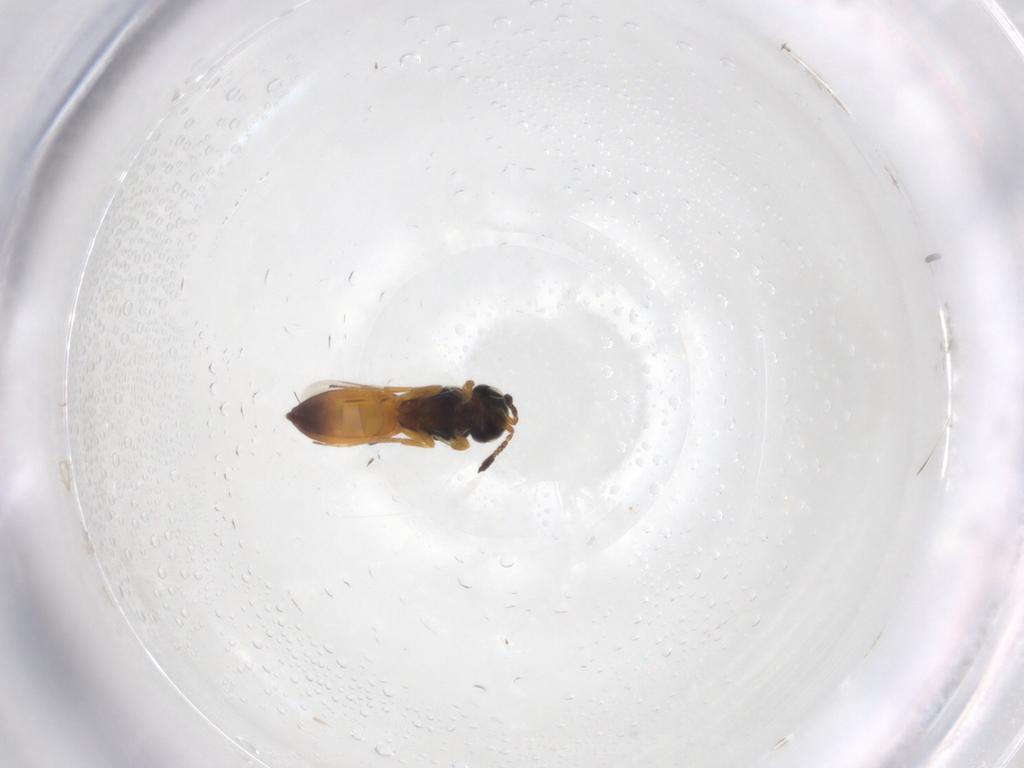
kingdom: Animalia
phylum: Arthropoda
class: Insecta
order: Hymenoptera
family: Scelionidae
